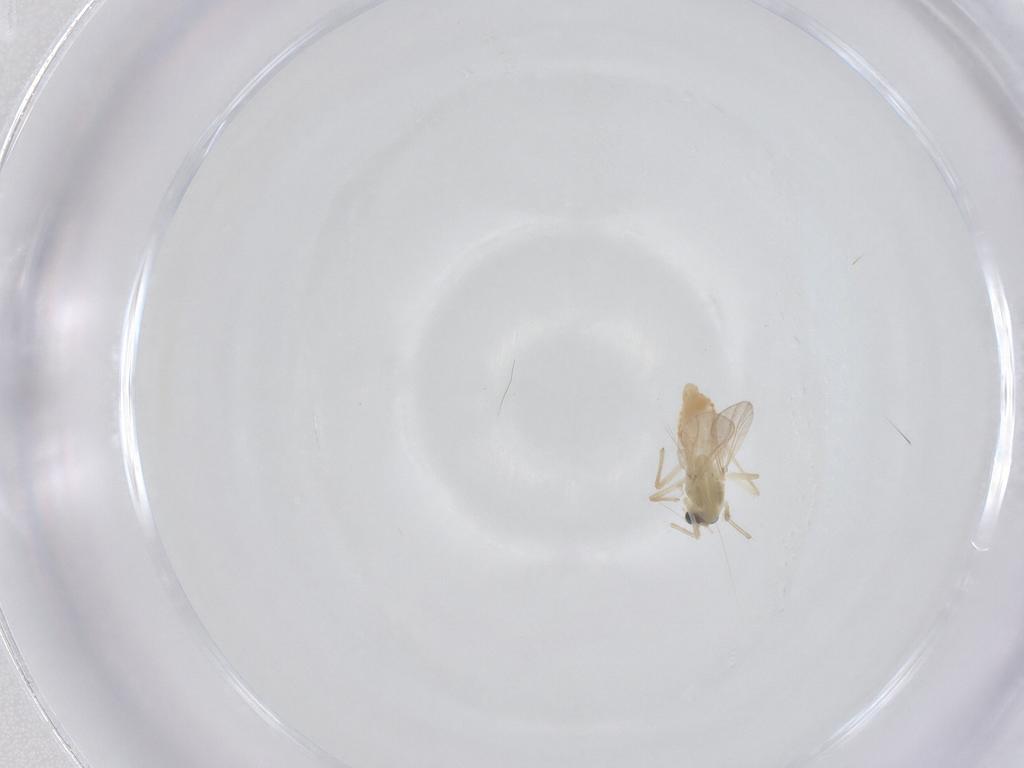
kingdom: Animalia
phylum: Arthropoda
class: Insecta
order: Diptera
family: Chironomidae
